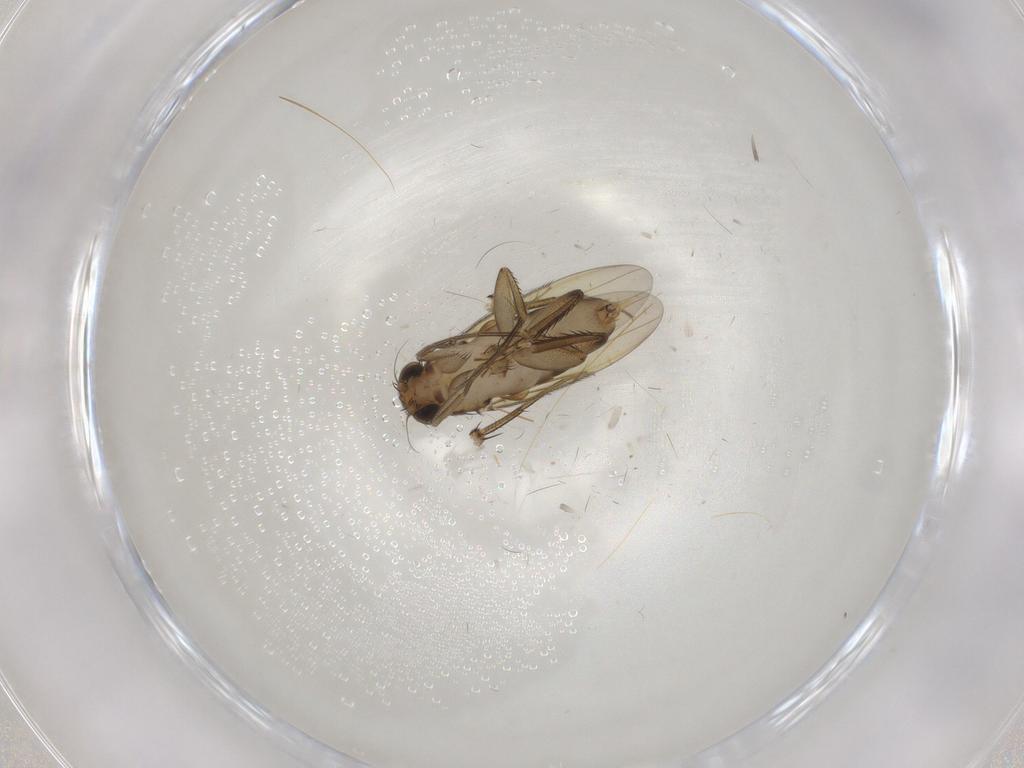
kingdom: Animalia
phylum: Arthropoda
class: Insecta
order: Diptera
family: Phoridae
